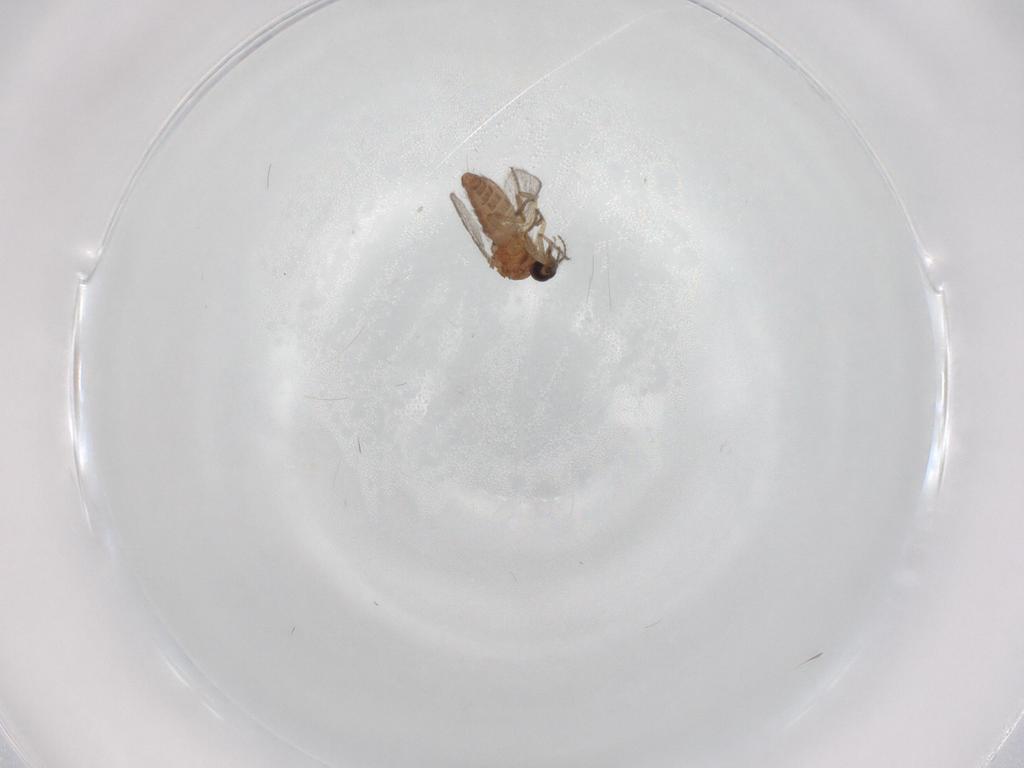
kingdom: Animalia
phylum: Arthropoda
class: Insecta
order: Diptera
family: Ceratopogonidae
